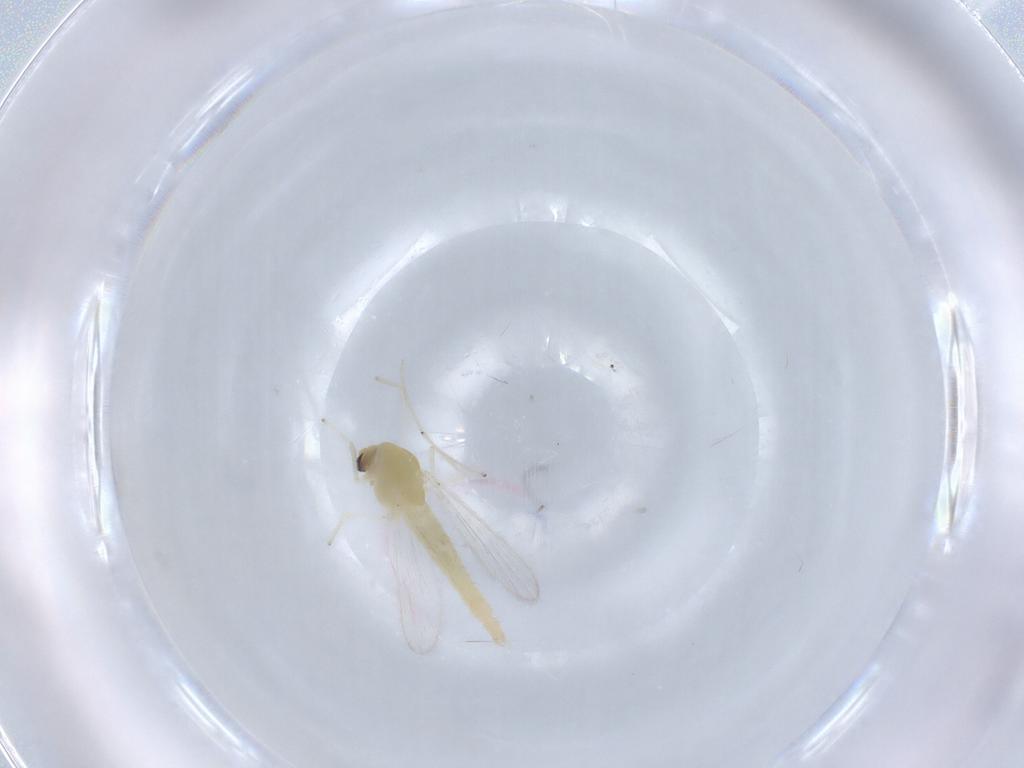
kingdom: Animalia
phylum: Arthropoda
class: Insecta
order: Diptera
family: Chironomidae
